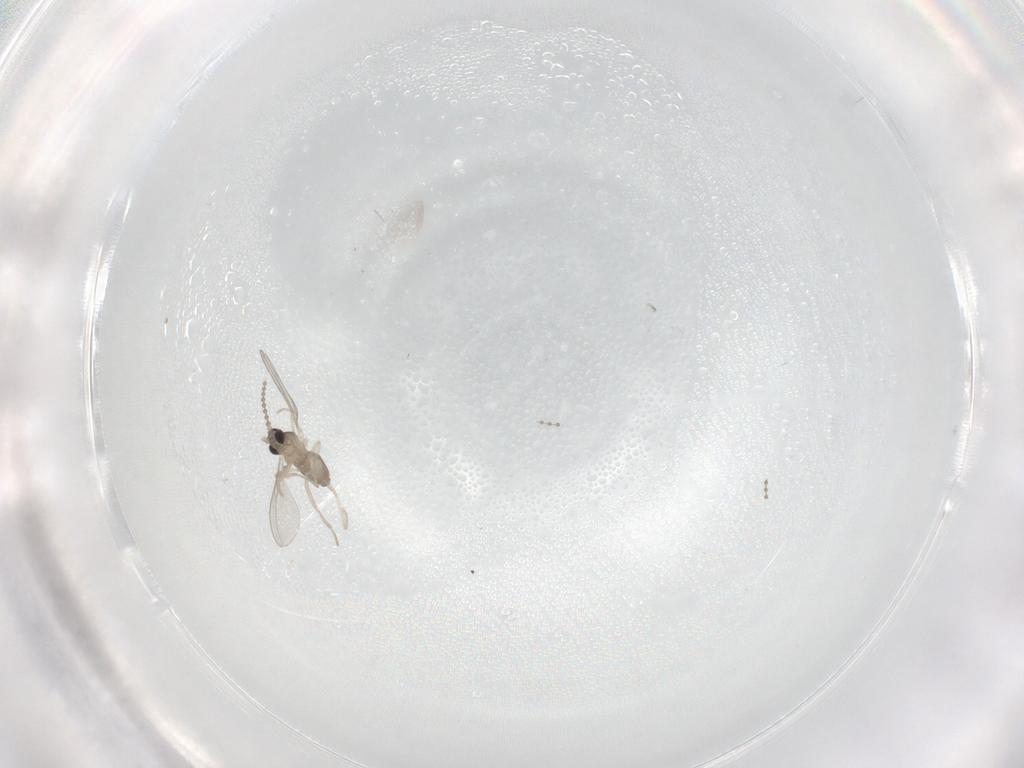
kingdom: Animalia
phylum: Arthropoda
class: Insecta
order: Diptera
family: Cecidomyiidae
